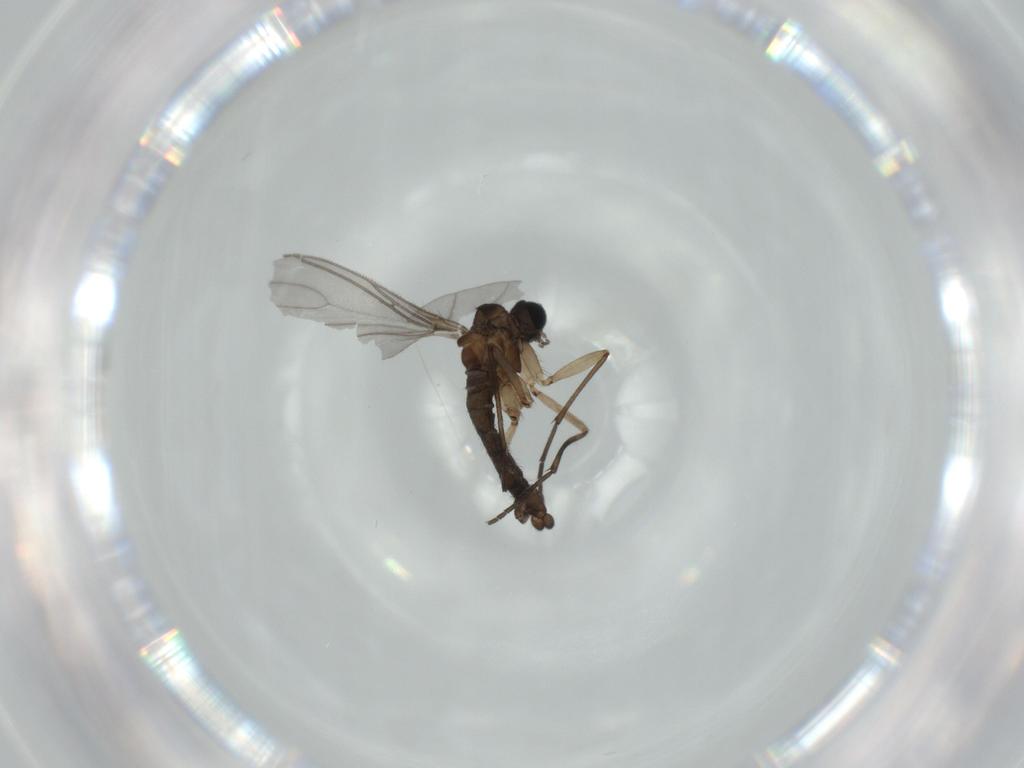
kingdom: Animalia
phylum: Arthropoda
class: Insecta
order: Diptera
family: Sciaridae
